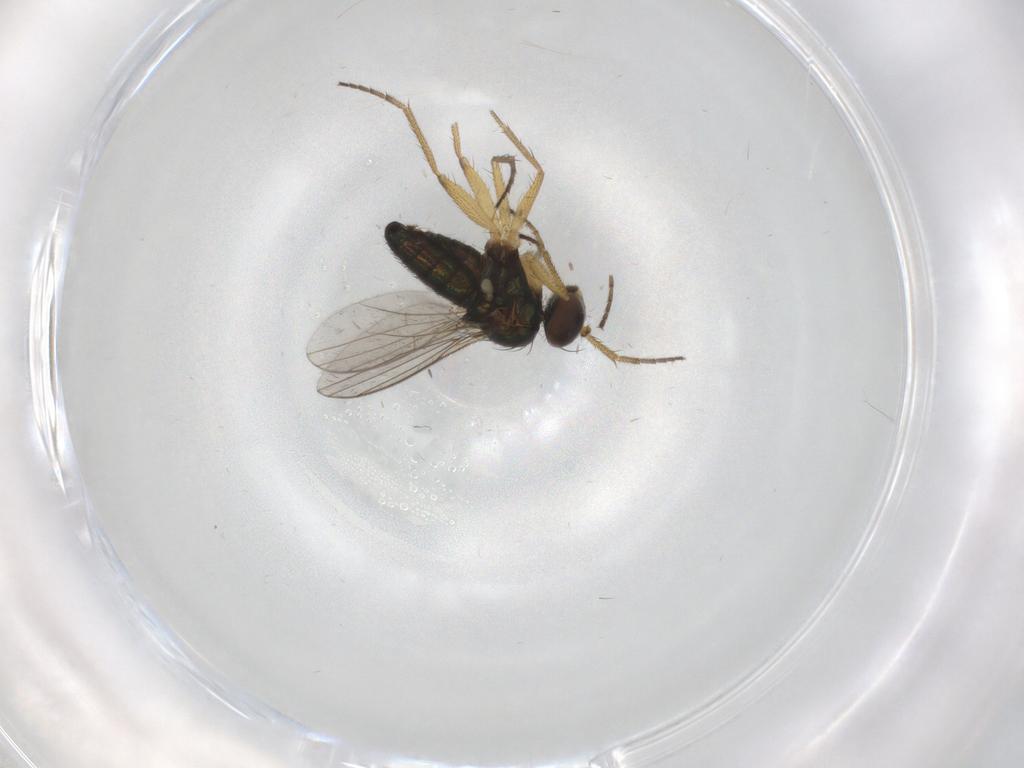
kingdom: Animalia
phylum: Arthropoda
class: Insecta
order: Diptera
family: Dolichopodidae
